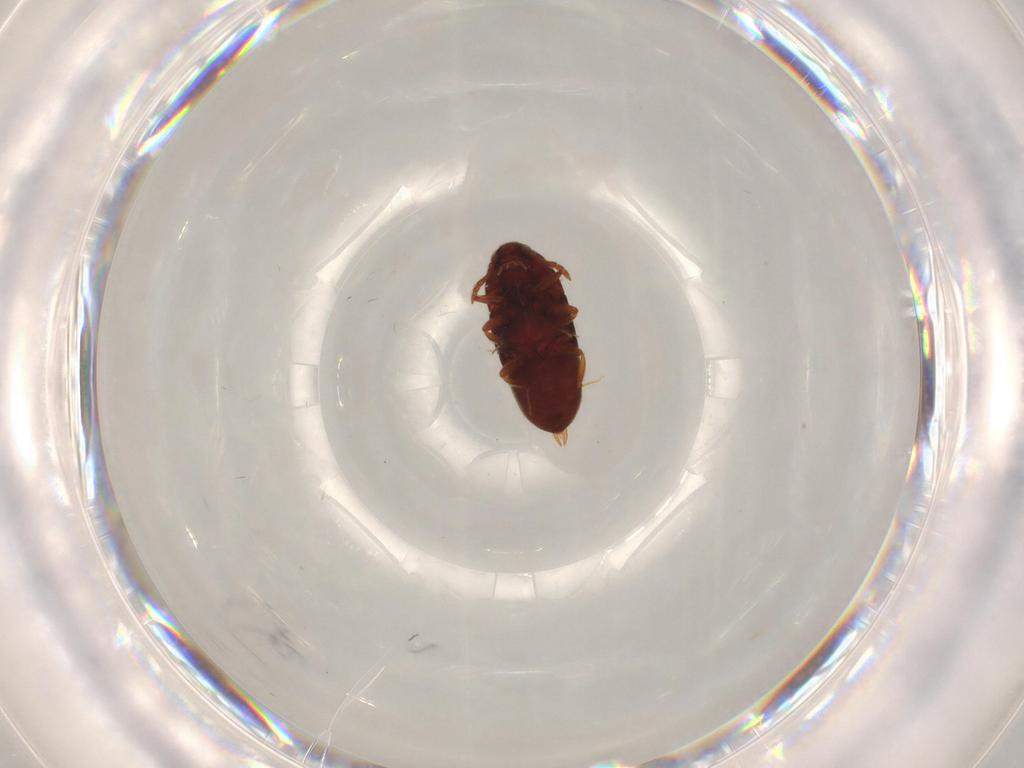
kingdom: Animalia
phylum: Arthropoda
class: Insecta
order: Coleoptera
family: Throscidae
